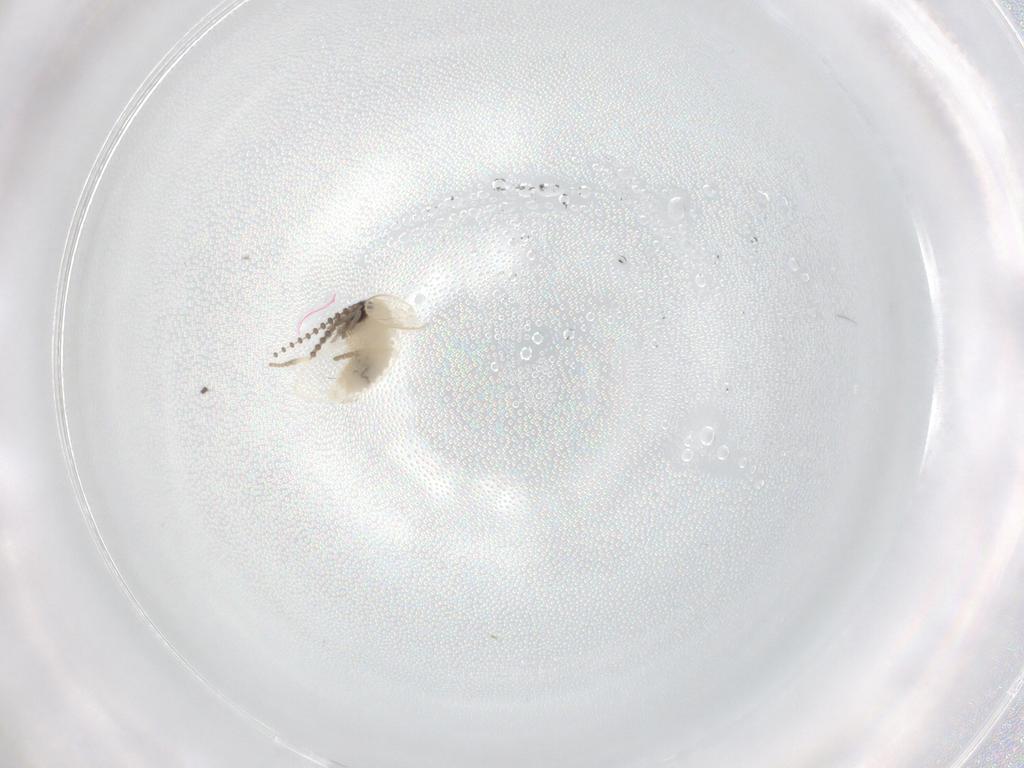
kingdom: Animalia
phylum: Arthropoda
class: Insecta
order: Diptera
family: Psychodidae
